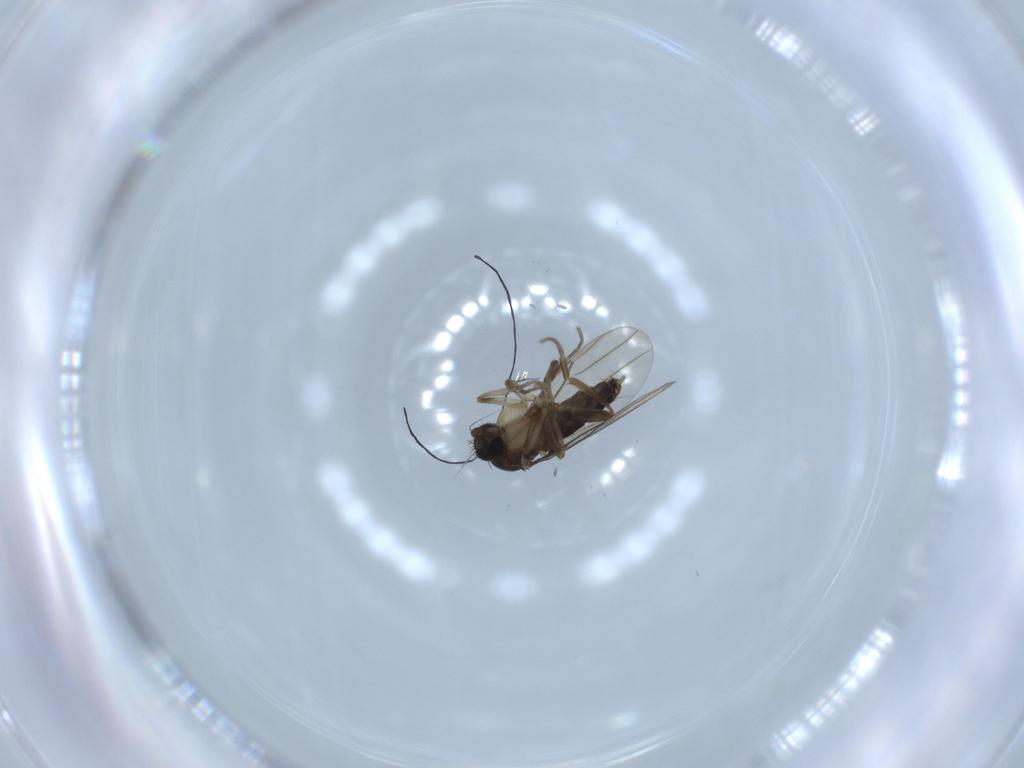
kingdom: Animalia
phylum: Arthropoda
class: Insecta
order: Diptera
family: Phoridae
